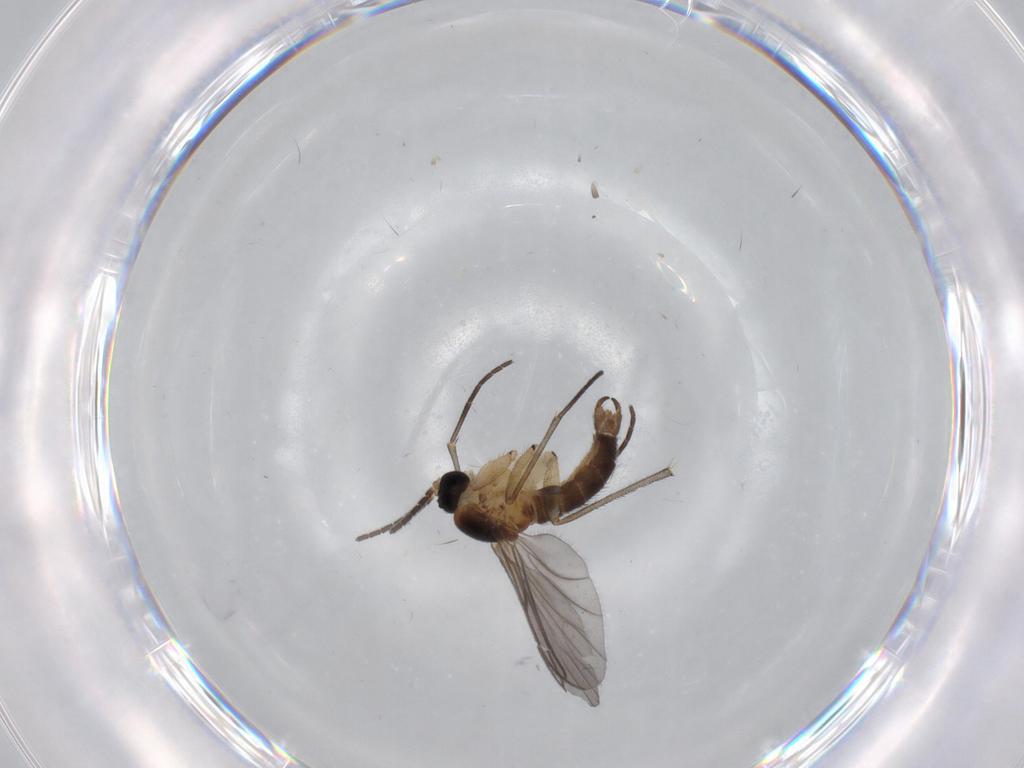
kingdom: Animalia
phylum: Arthropoda
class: Insecta
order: Diptera
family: Sciaridae
